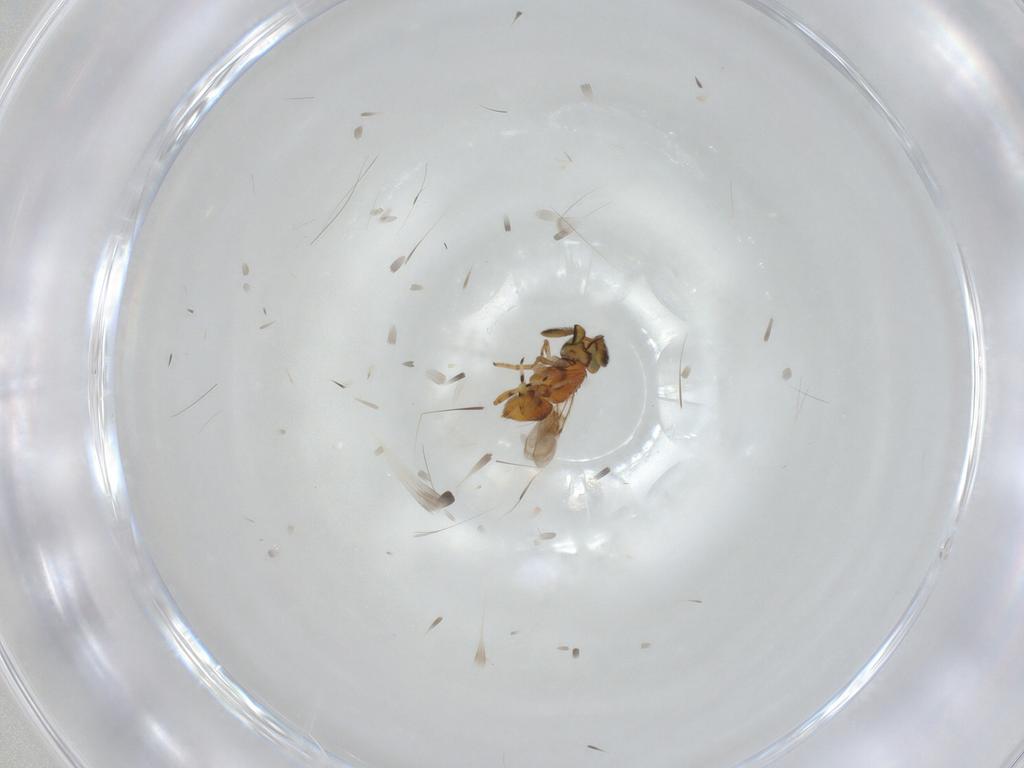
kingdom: Animalia
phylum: Arthropoda
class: Insecta
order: Hymenoptera
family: Formicidae
